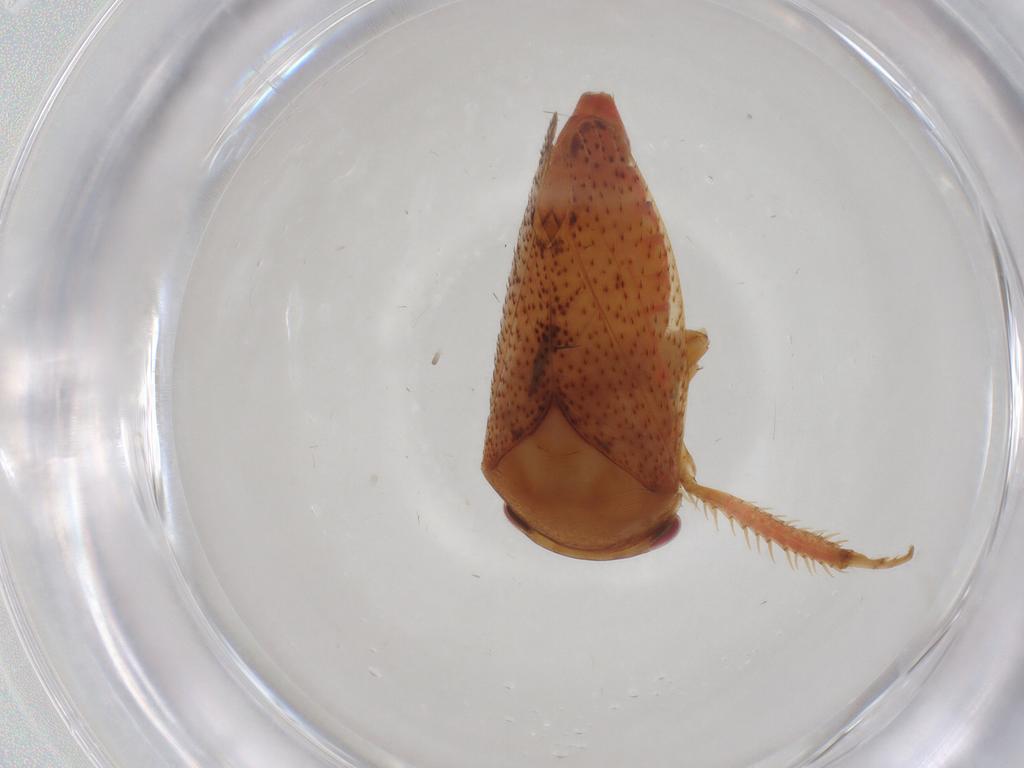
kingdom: Animalia
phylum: Arthropoda
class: Insecta
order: Hemiptera
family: Cicadellidae
